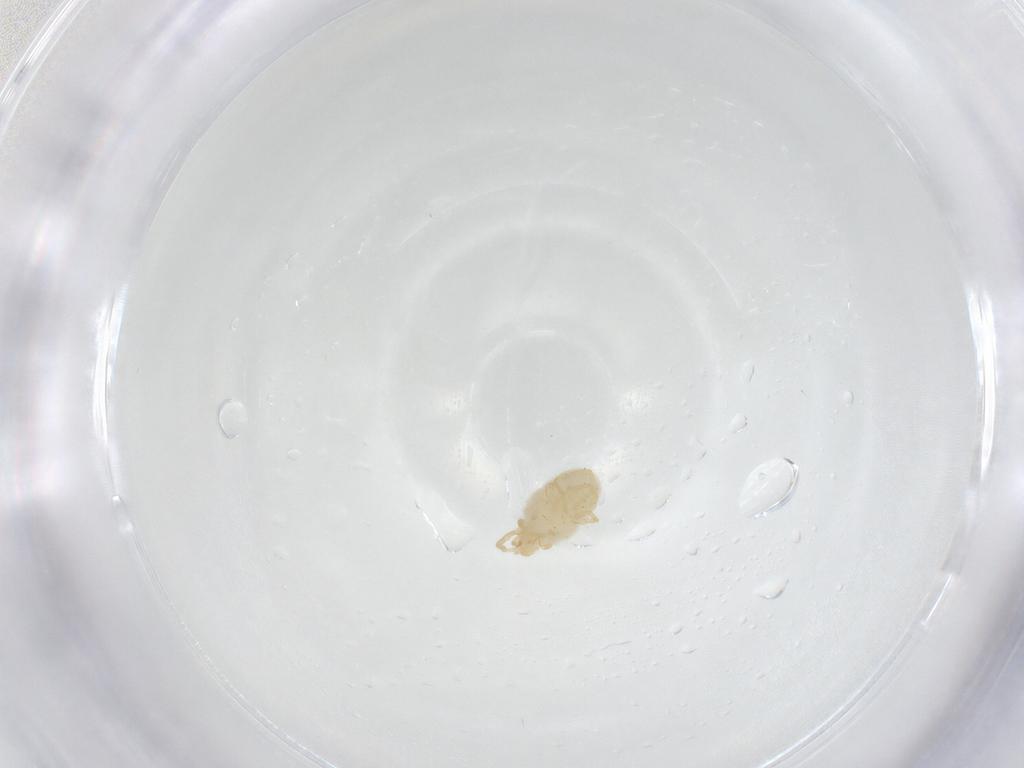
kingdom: Animalia
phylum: Arthropoda
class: Arachnida
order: Trombidiformes
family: Erythraeidae
